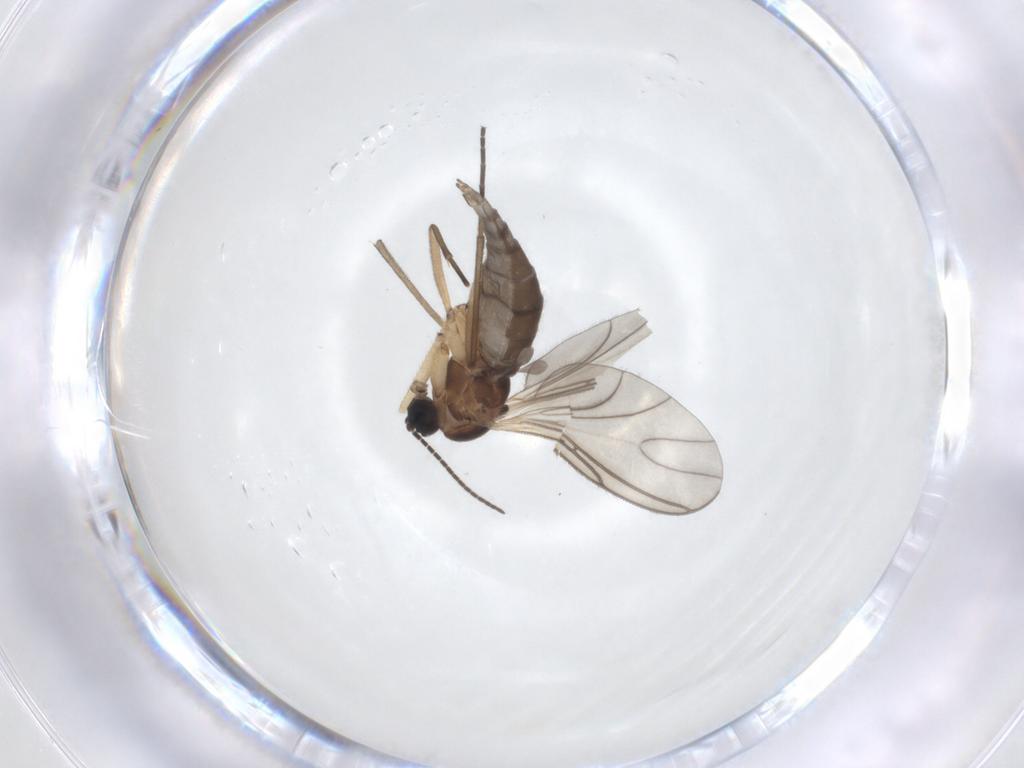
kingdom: Animalia
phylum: Arthropoda
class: Insecta
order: Diptera
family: Sciaridae
